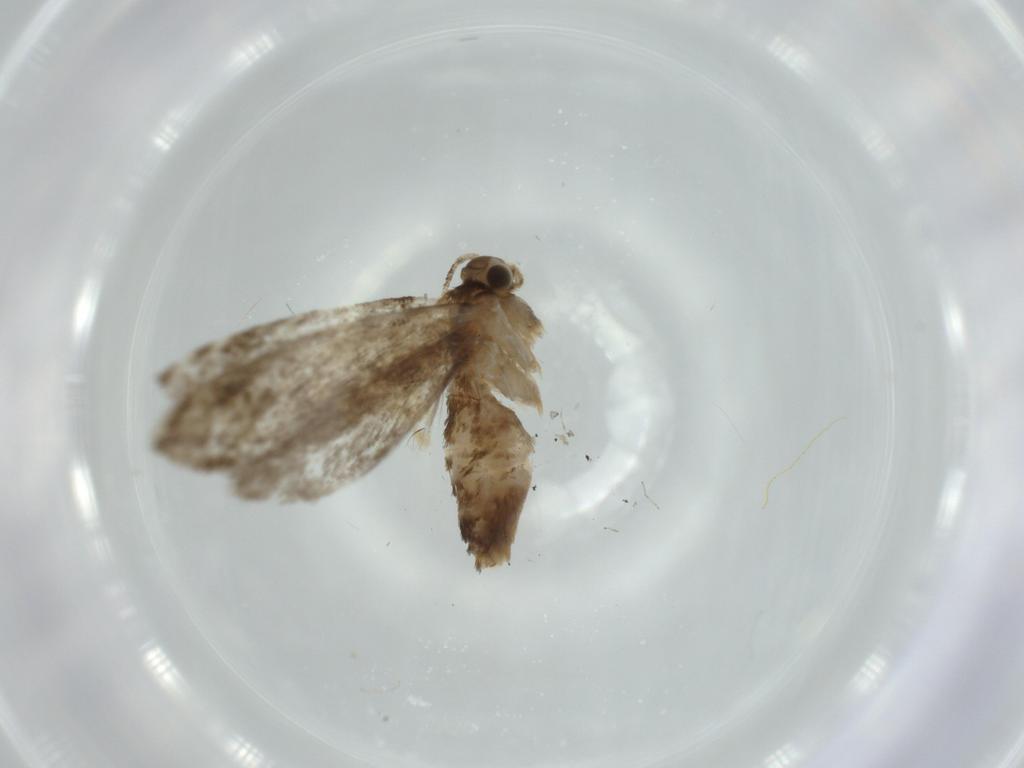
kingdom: Animalia
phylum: Arthropoda
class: Insecta
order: Lepidoptera
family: Tineidae
